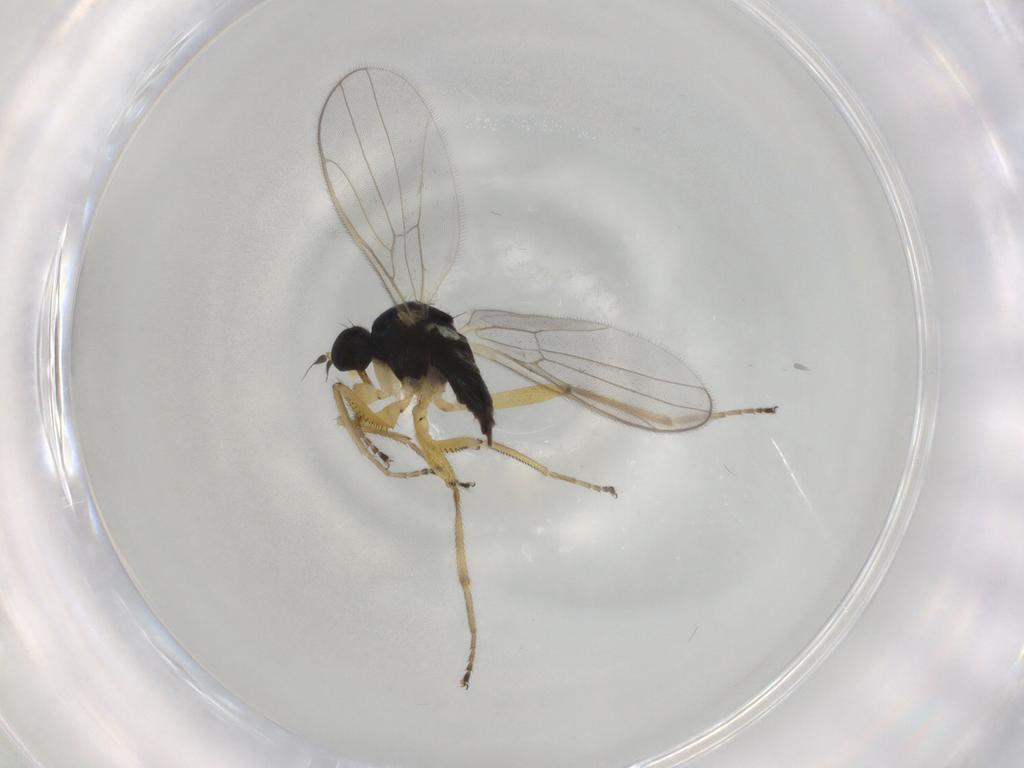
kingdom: Animalia
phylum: Arthropoda
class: Insecta
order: Diptera
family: Hybotidae
